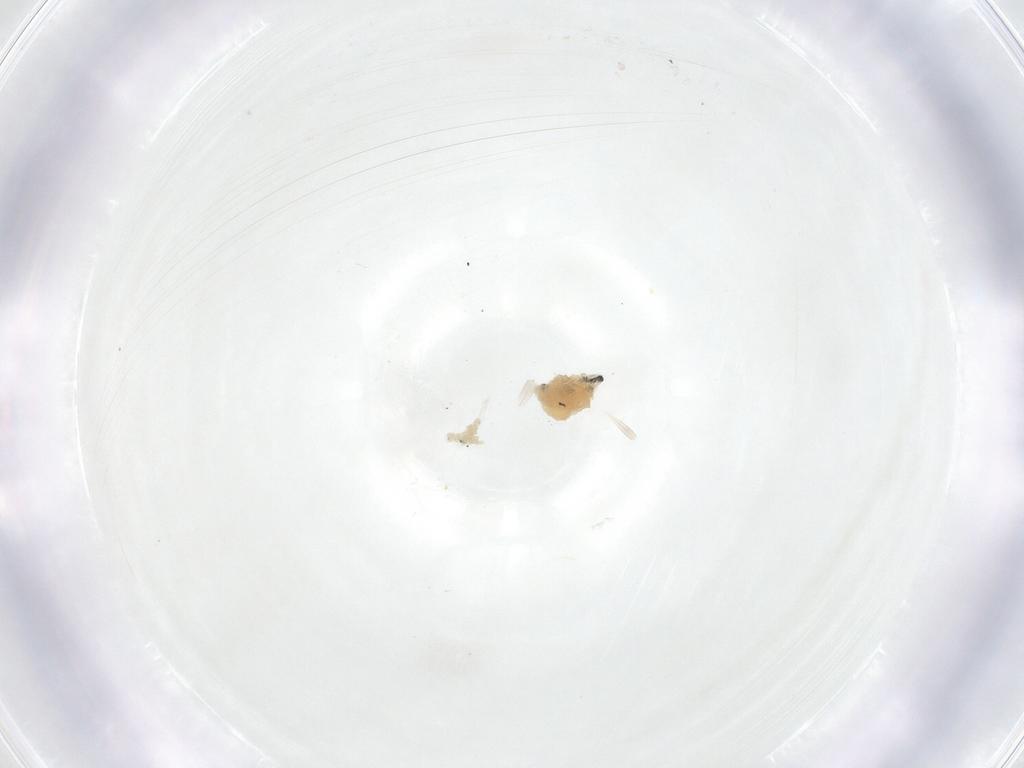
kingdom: Animalia
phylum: Arthropoda
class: Insecta
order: Diptera
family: Fergusoninidae
